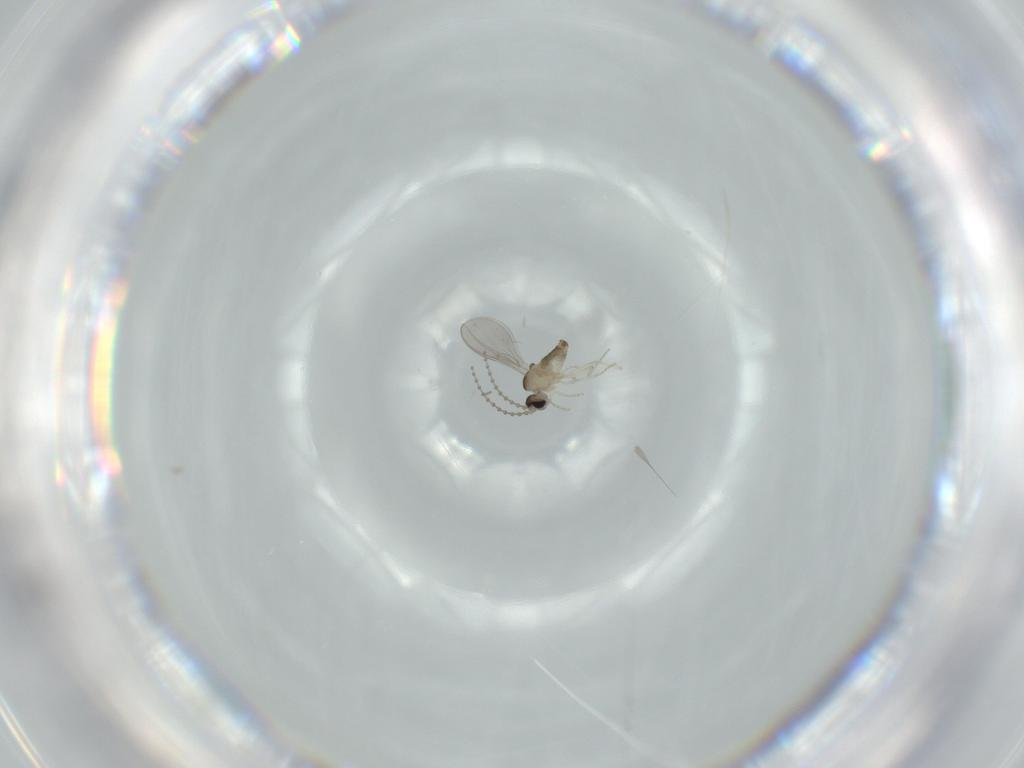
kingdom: Animalia
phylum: Arthropoda
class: Insecta
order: Diptera
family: Cecidomyiidae
